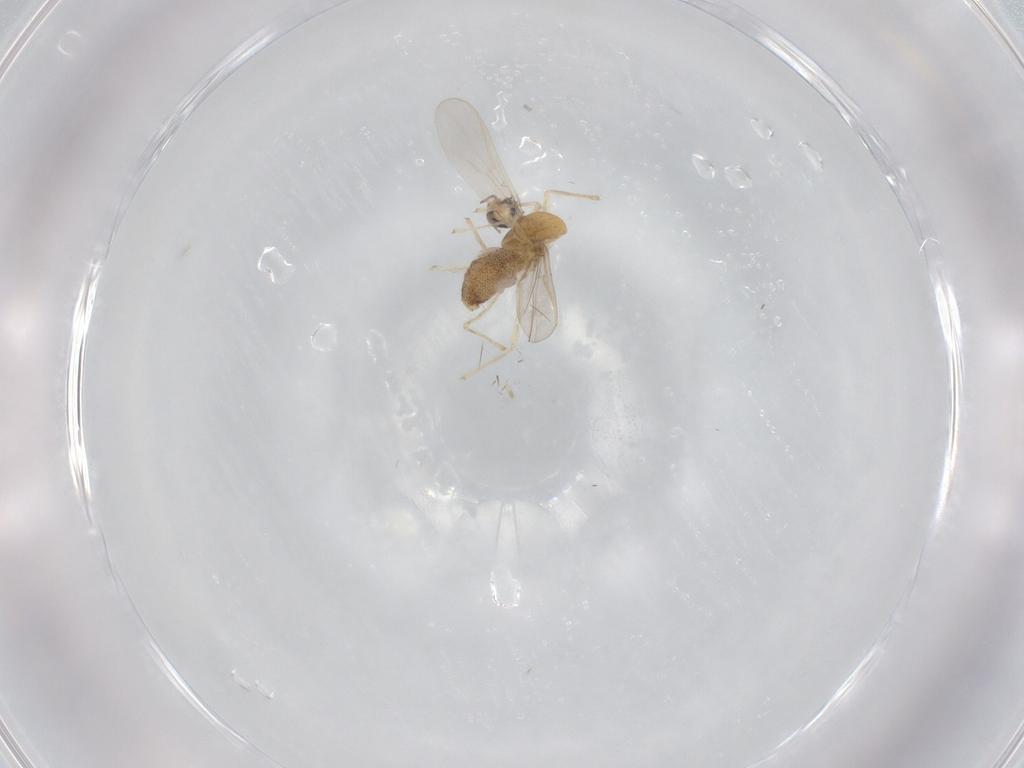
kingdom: Animalia
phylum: Arthropoda
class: Insecta
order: Diptera
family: Chironomidae
